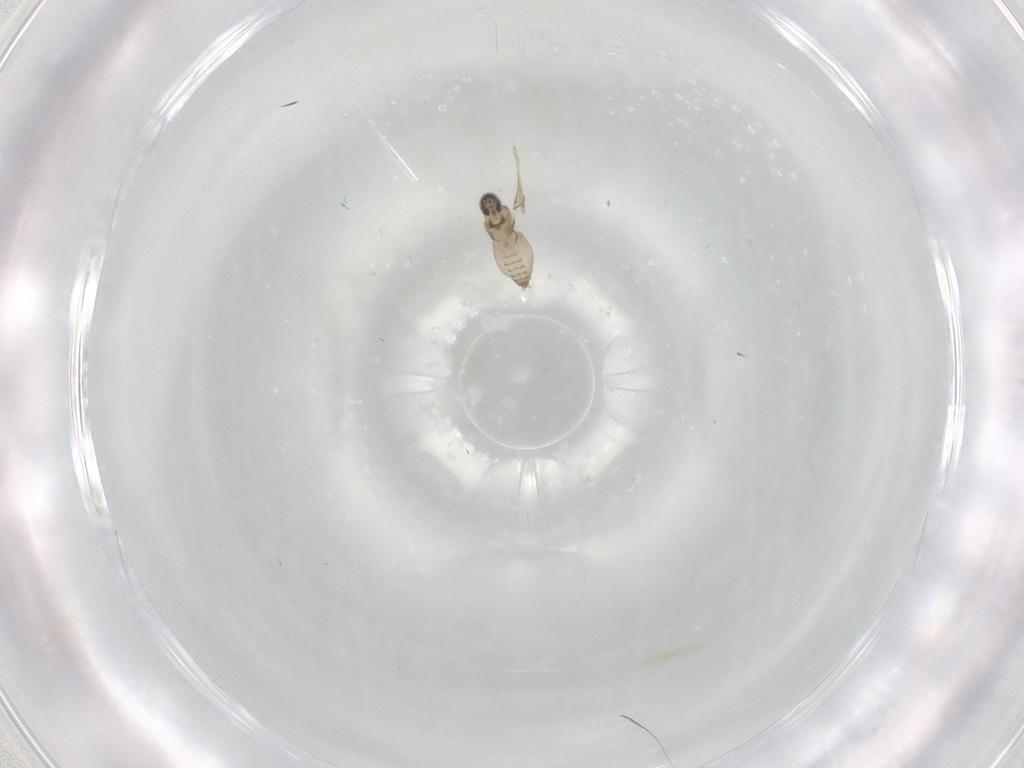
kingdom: Animalia
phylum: Arthropoda
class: Insecta
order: Diptera
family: Cecidomyiidae
